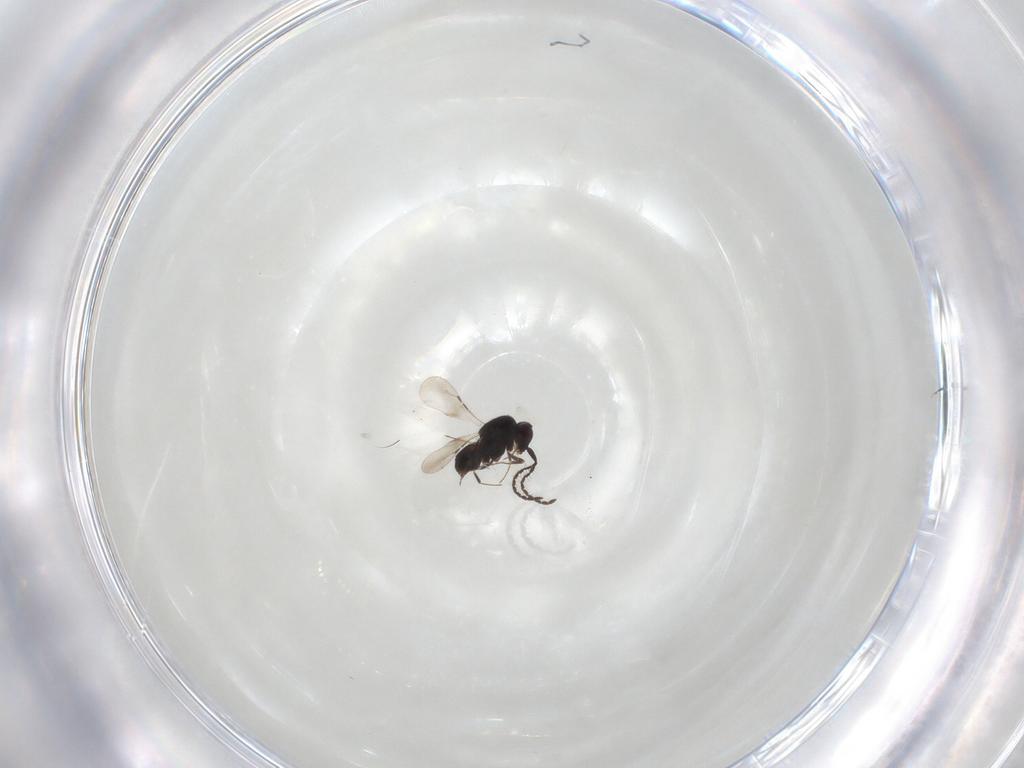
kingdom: Animalia
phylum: Arthropoda
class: Insecta
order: Hymenoptera
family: Ceraphronidae
